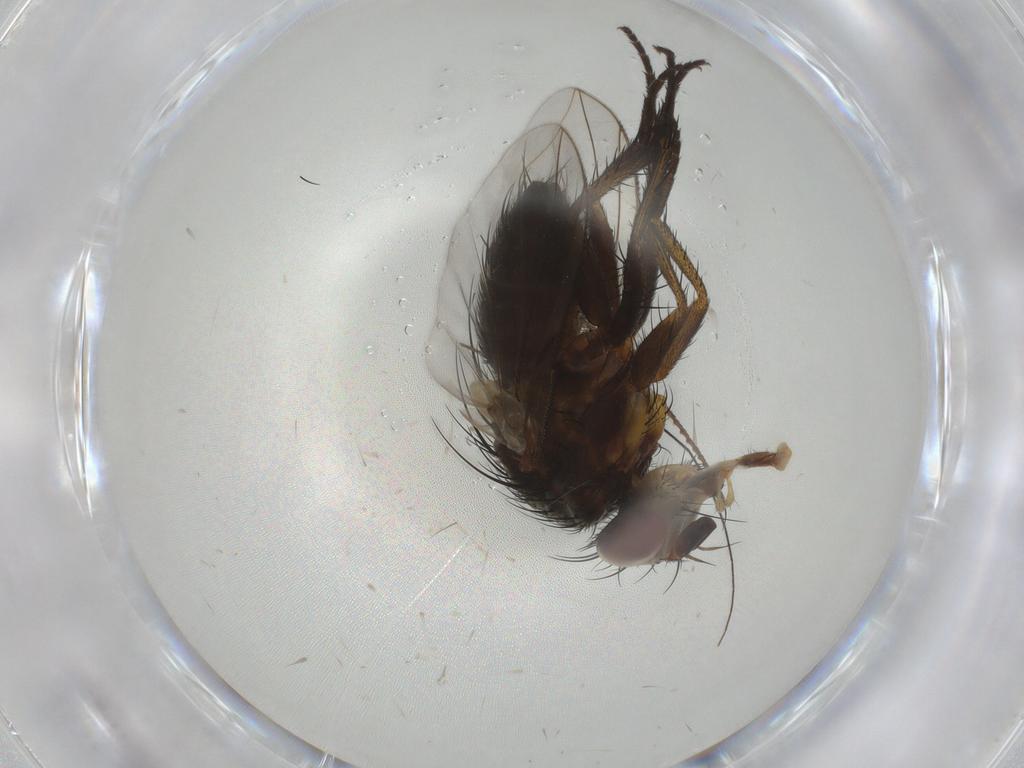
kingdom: Animalia
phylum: Arthropoda
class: Insecta
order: Diptera
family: Tachinidae
